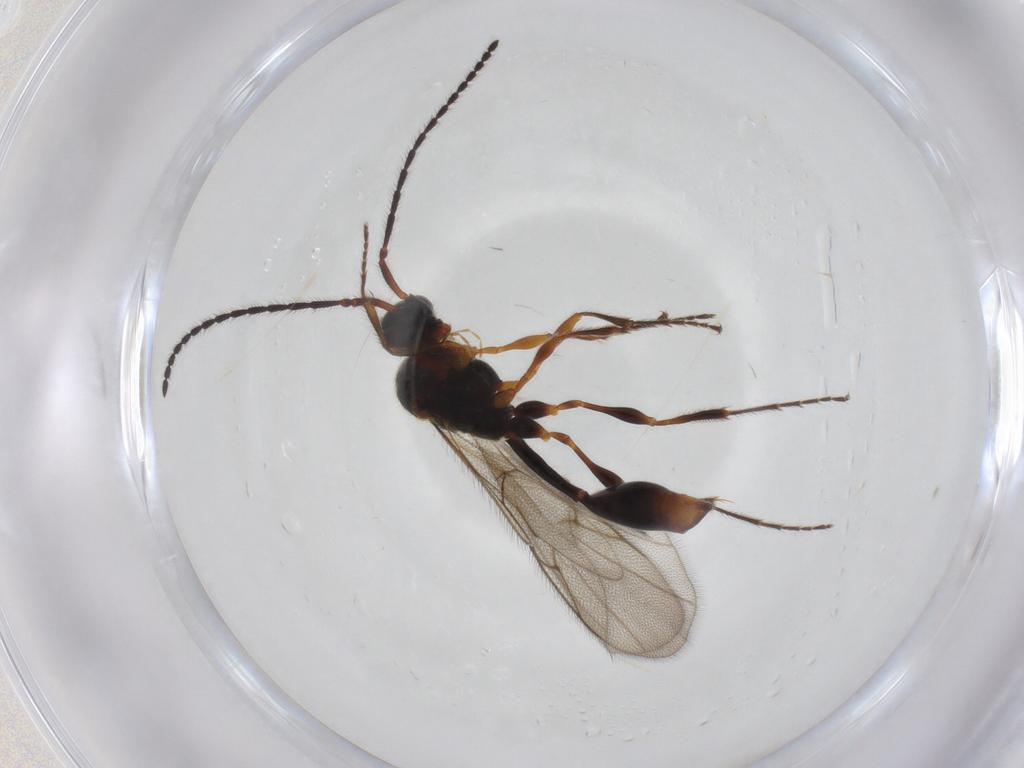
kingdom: Animalia
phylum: Arthropoda
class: Insecta
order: Hymenoptera
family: Diapriidae
